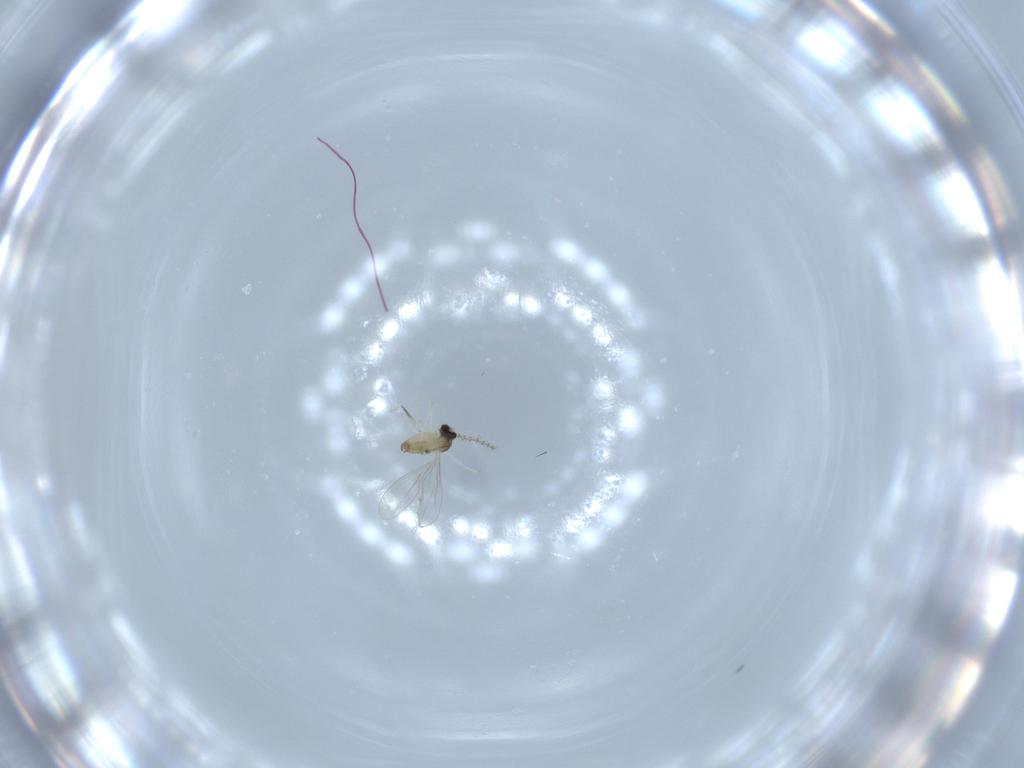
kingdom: Animalia
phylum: Arthropoda
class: Insecta
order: Diptera
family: Cecidomyiidae
